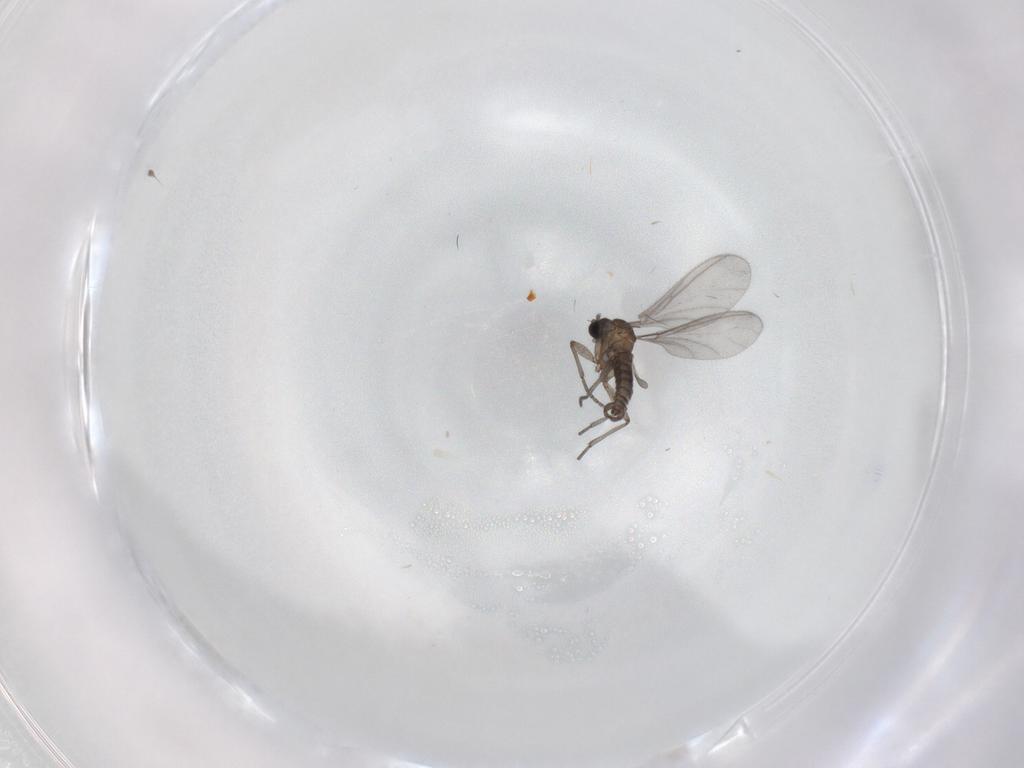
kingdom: Animalia
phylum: Arthropoda
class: Insecta
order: Diptera
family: Sciaridae
